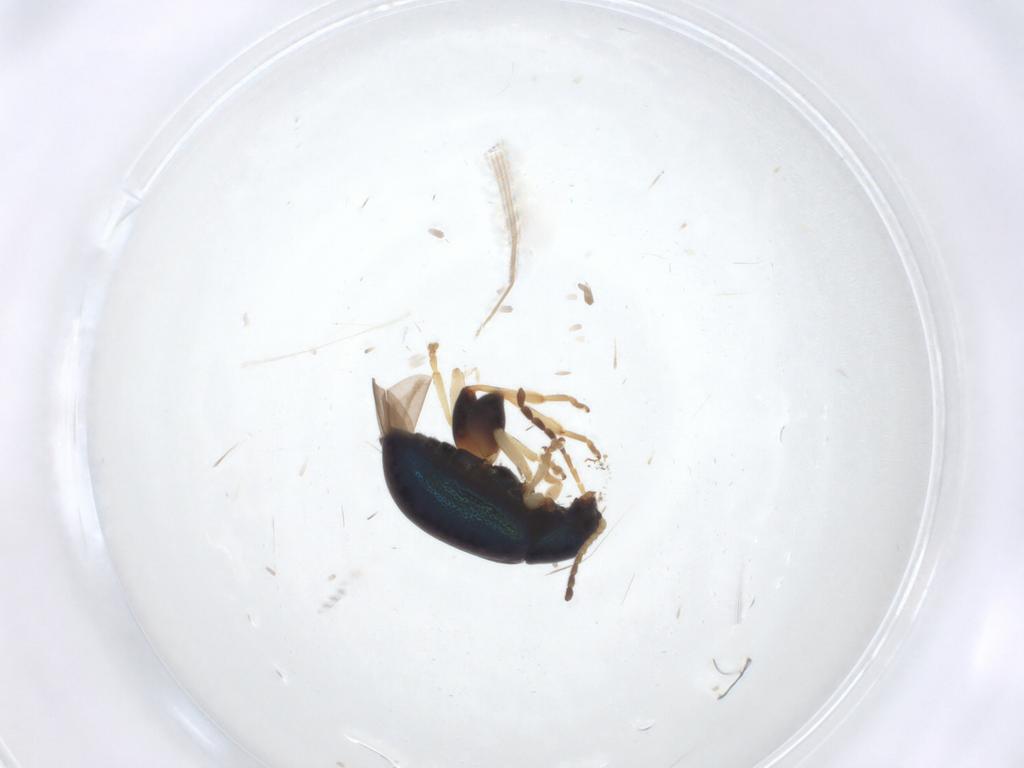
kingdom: Animalia
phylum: Arthropoda
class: Insecta
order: Coleoptera
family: Chrysomelidae
